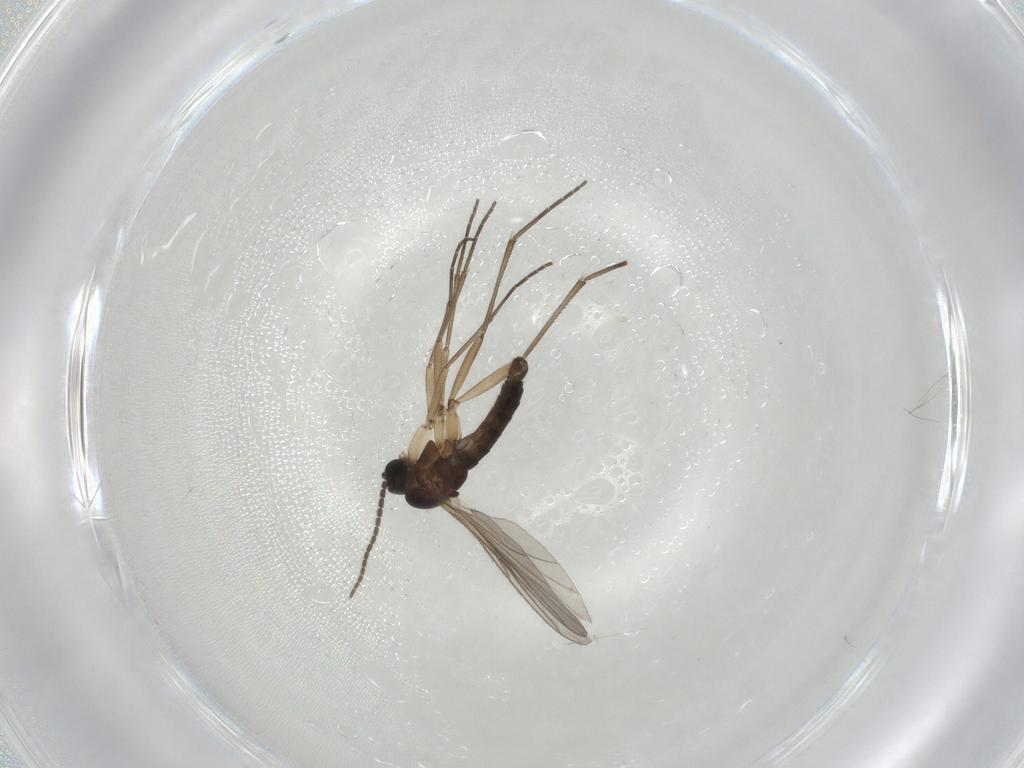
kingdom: Animalia
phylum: Arthropoda
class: Insecta
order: Diptera
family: Sciaridae
